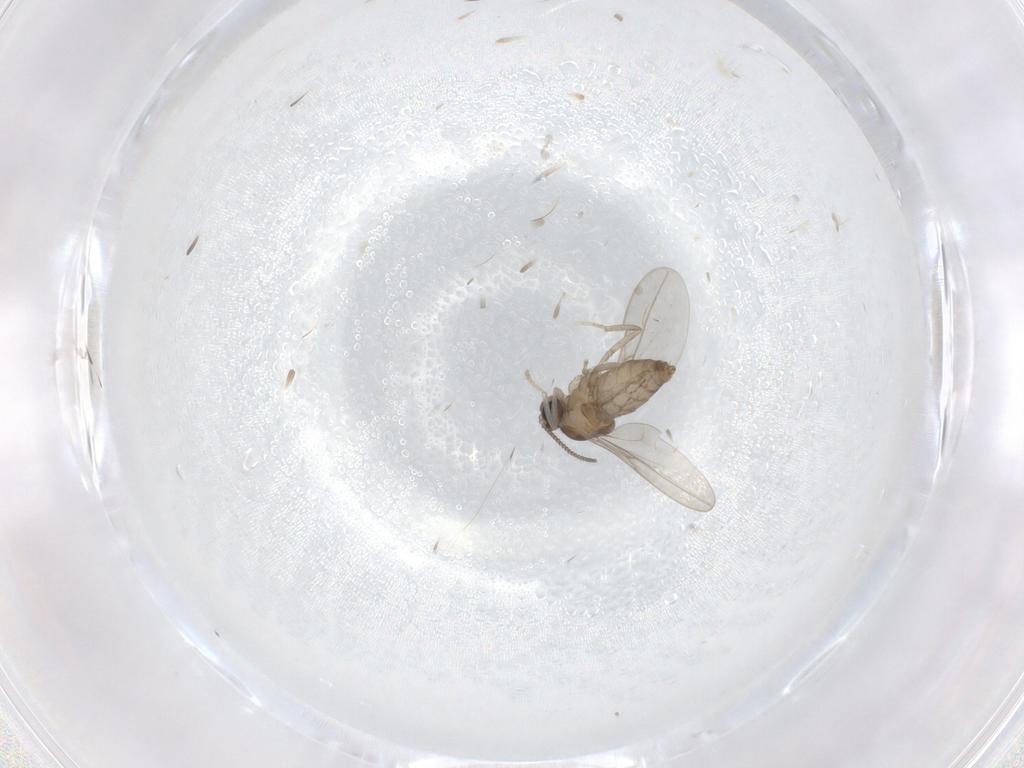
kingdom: Animalia
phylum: Arthropoda
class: Insecta
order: Diptera
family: Cecidomyiidae
